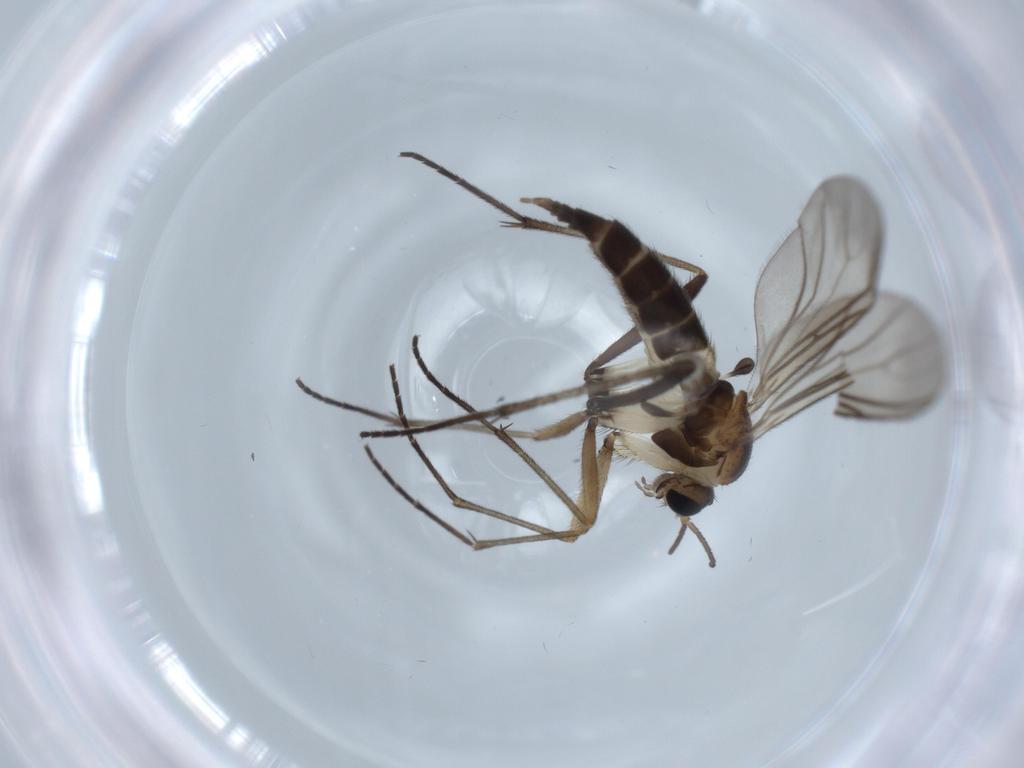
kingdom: Animalia
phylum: Arthropoda
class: Insecta
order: Diptera
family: Sciaridae
